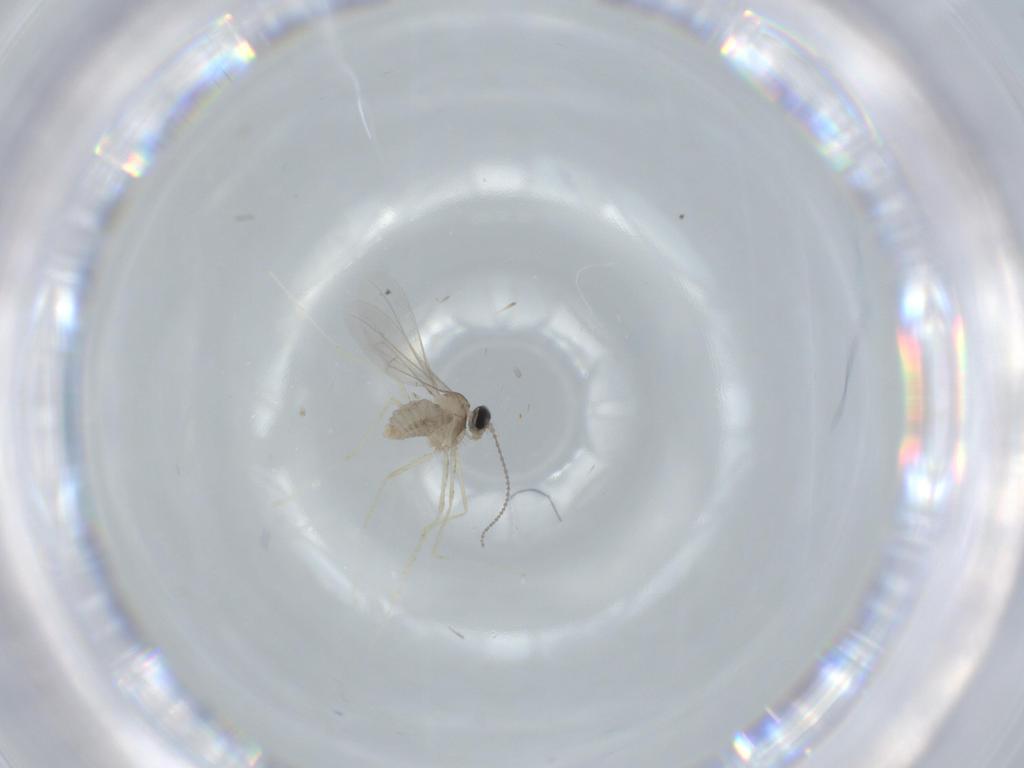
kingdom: Animalia
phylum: Arthropoda
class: Insecta
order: Diptera
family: Cecidomyiidae
